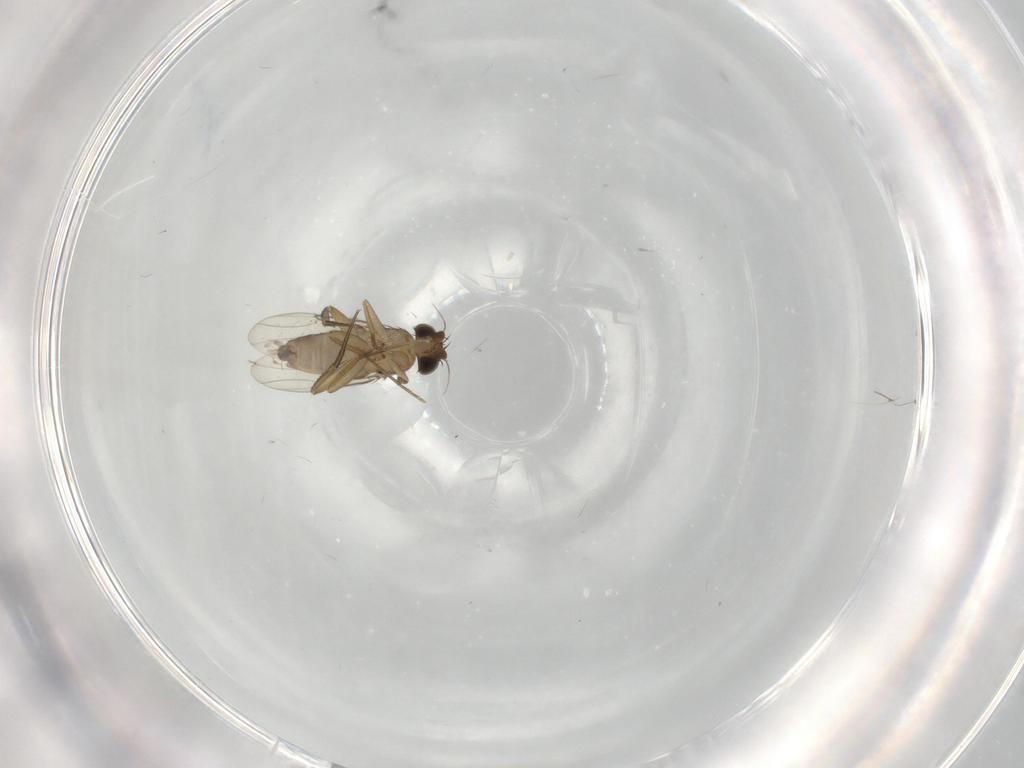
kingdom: Animalia
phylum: Arthropoda
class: Insecta
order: Diptera
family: Phoridae
